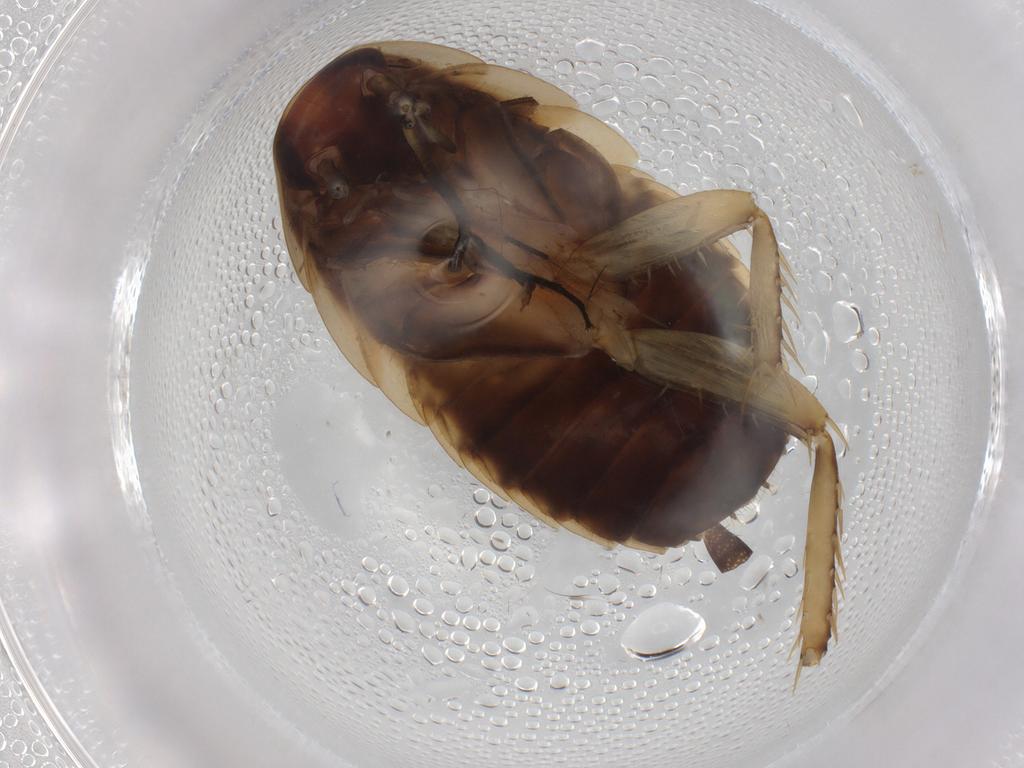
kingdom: Animalia
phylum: Arthropoda
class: Insecta
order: Blattodea
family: Ectobiidae
